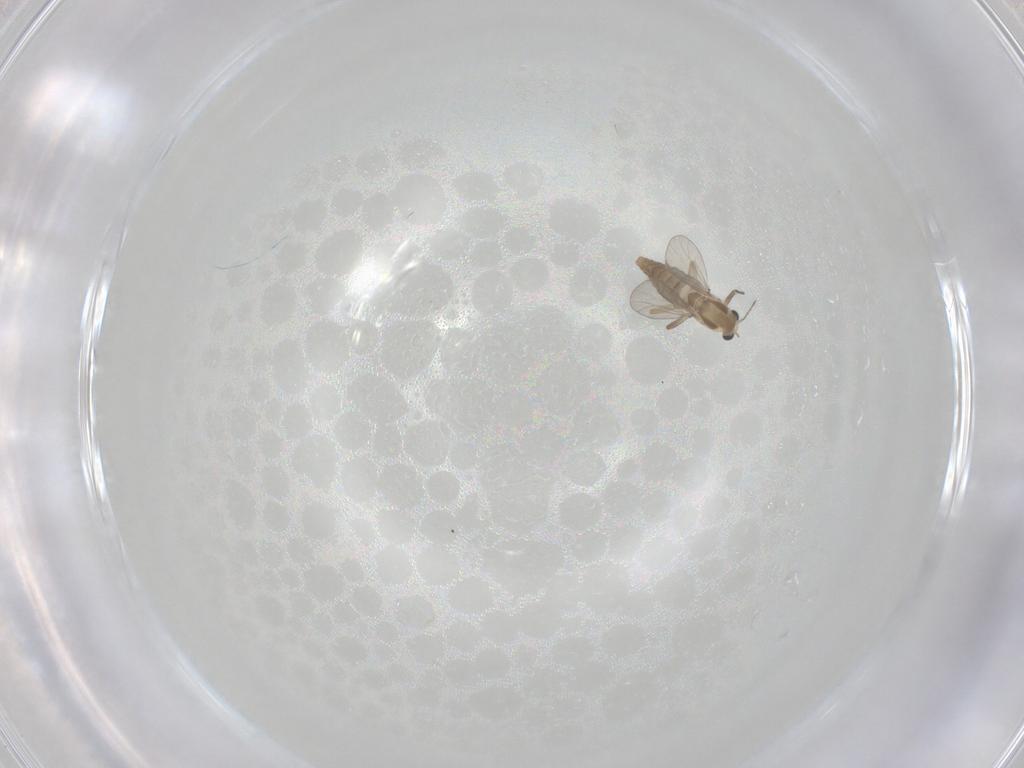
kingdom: Animalia
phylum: Arthropoda
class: Insecta
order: Diptera
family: Chironomidae
